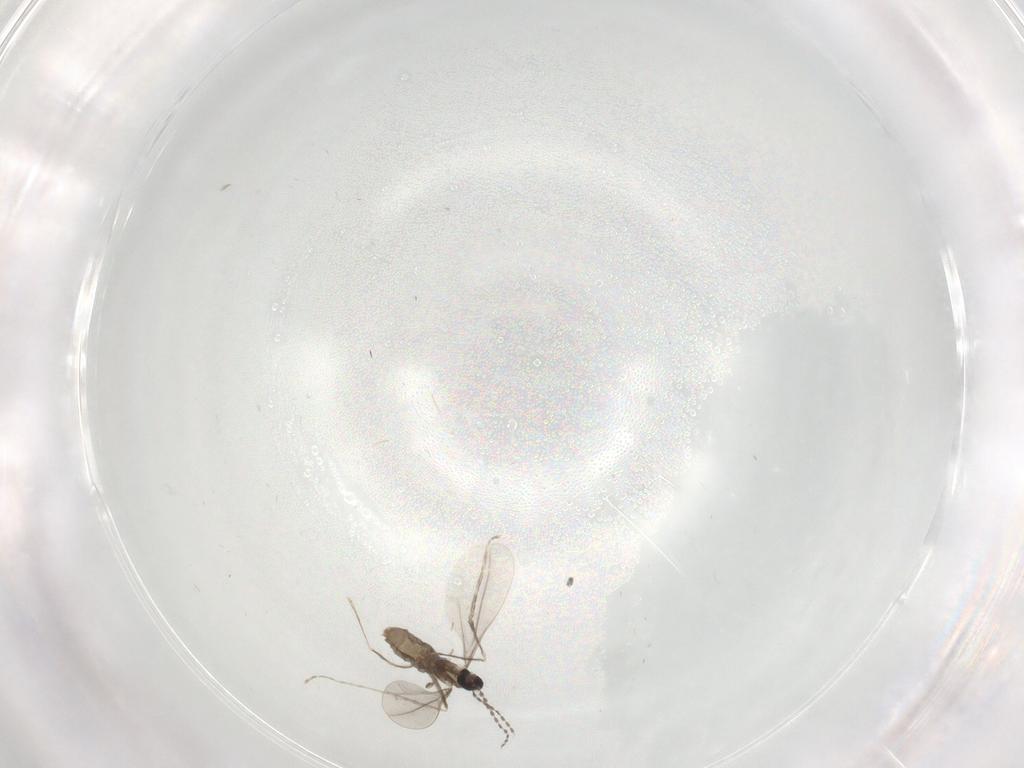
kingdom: Animalia
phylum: Arthropoda
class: Insecta
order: Diptera
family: Cecidomyiidae
